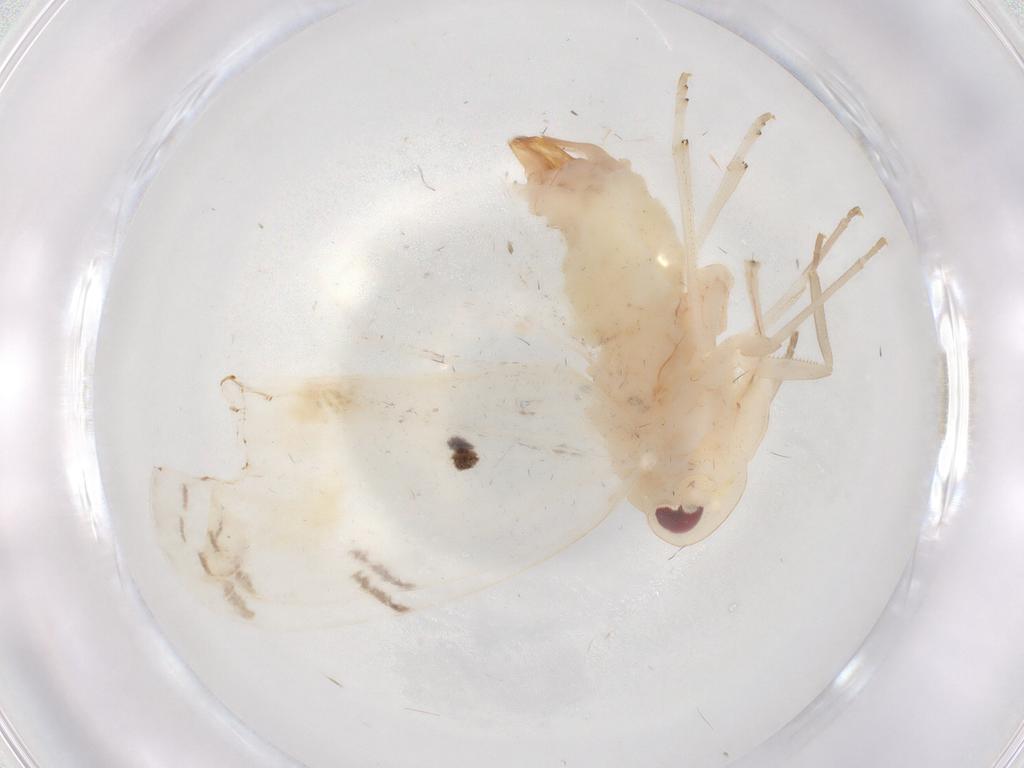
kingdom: Animalia
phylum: Arthropoda
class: Insecta
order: Hemiptera
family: Derbidae
